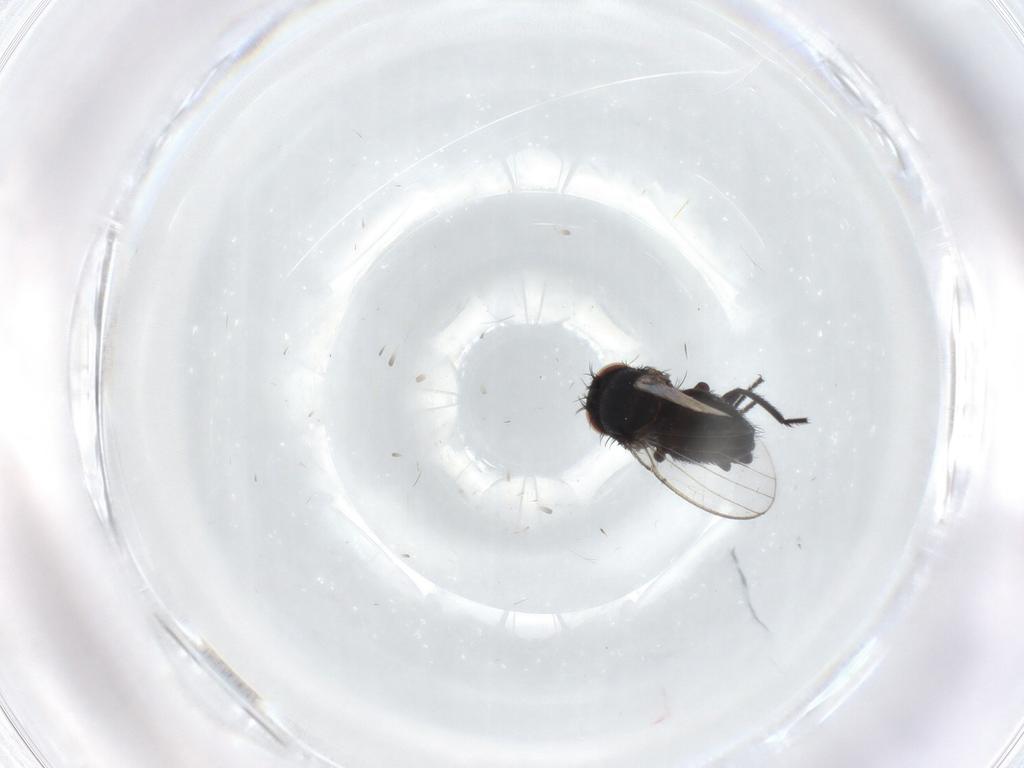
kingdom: Animalia
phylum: Arthropoda
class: Insecta
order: Diptera
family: Milichiidae
